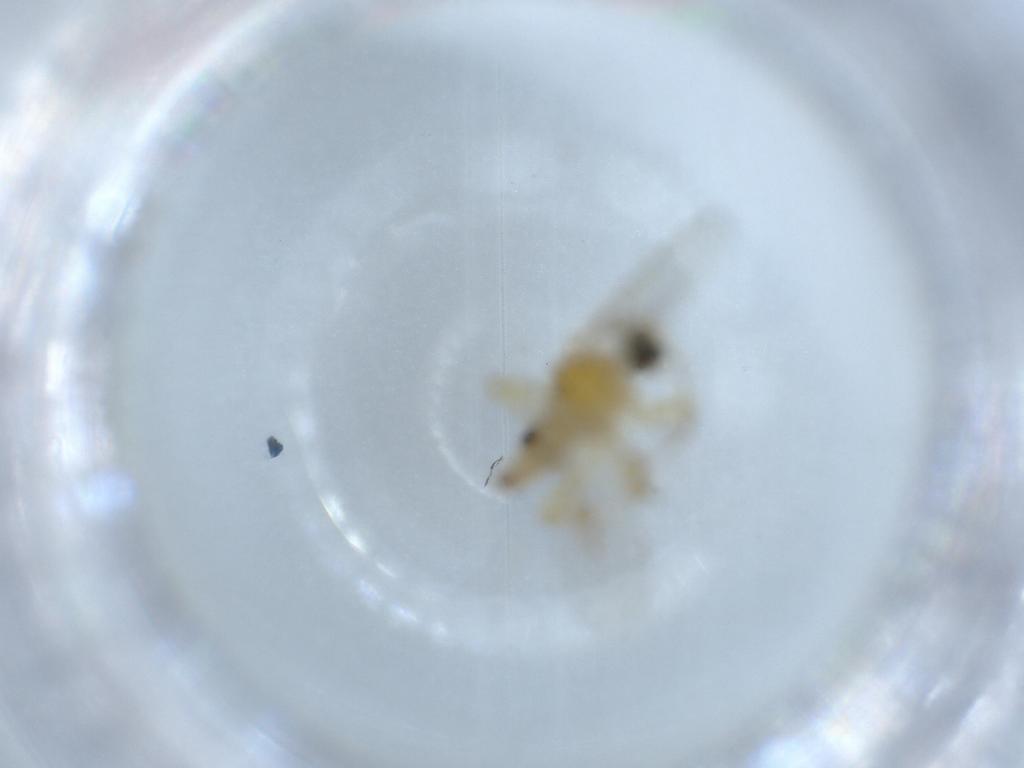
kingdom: Animalia
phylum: Arthropoda
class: Insecta
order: Diptera
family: Hybotidae
